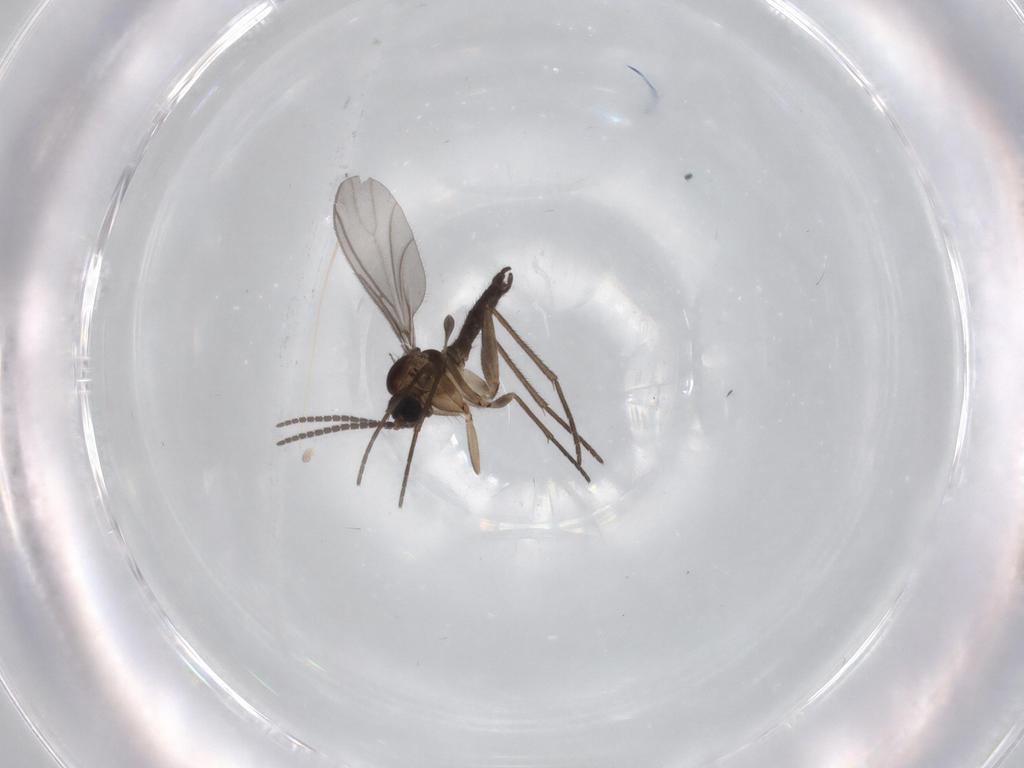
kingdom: Animalia
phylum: Arthropoda
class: Insecta
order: Diptera
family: Sciaridae
